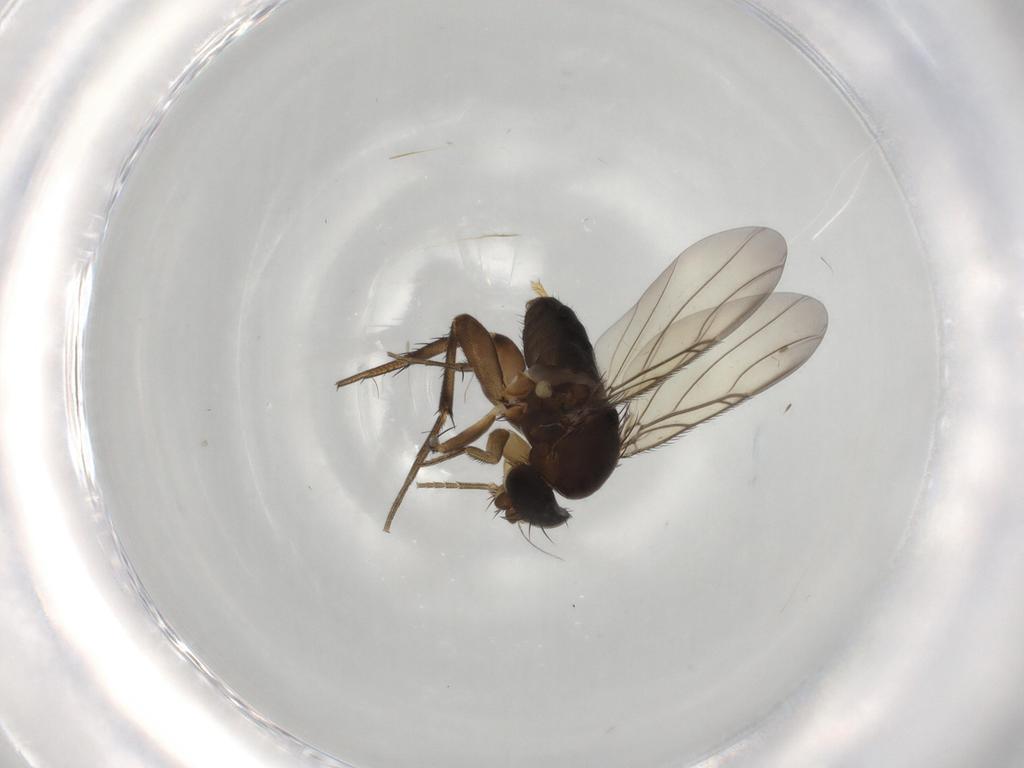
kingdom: Animalia
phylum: Arthropoda
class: Insecta
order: Diptera
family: Phoridae
